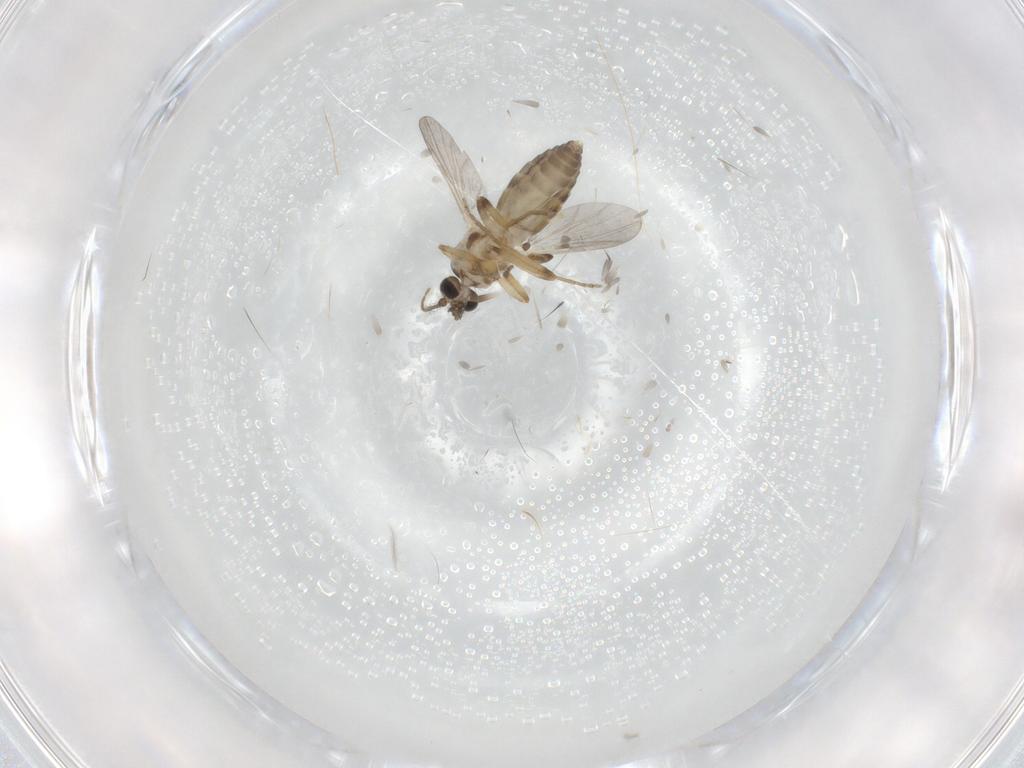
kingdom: Animalia
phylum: Arthropoda
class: Insecta
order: Diptera
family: Ceratopogonidae
